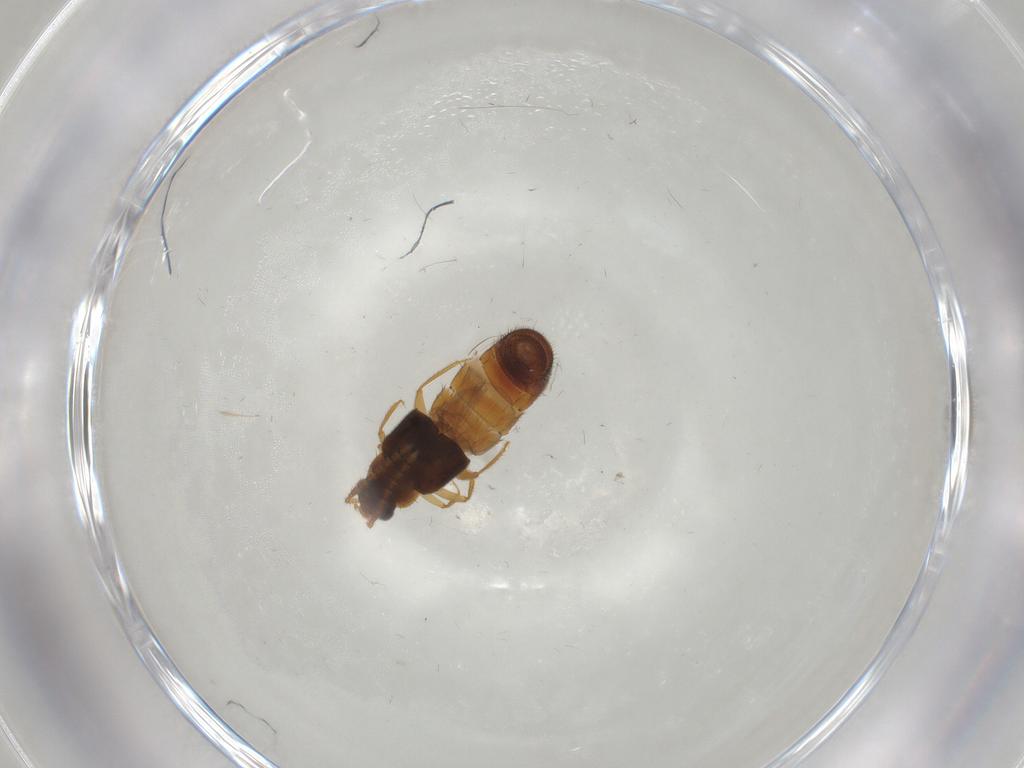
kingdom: Animalia
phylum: Arthropoda
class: Insecta
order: Coleoptera
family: Staphylinidae
